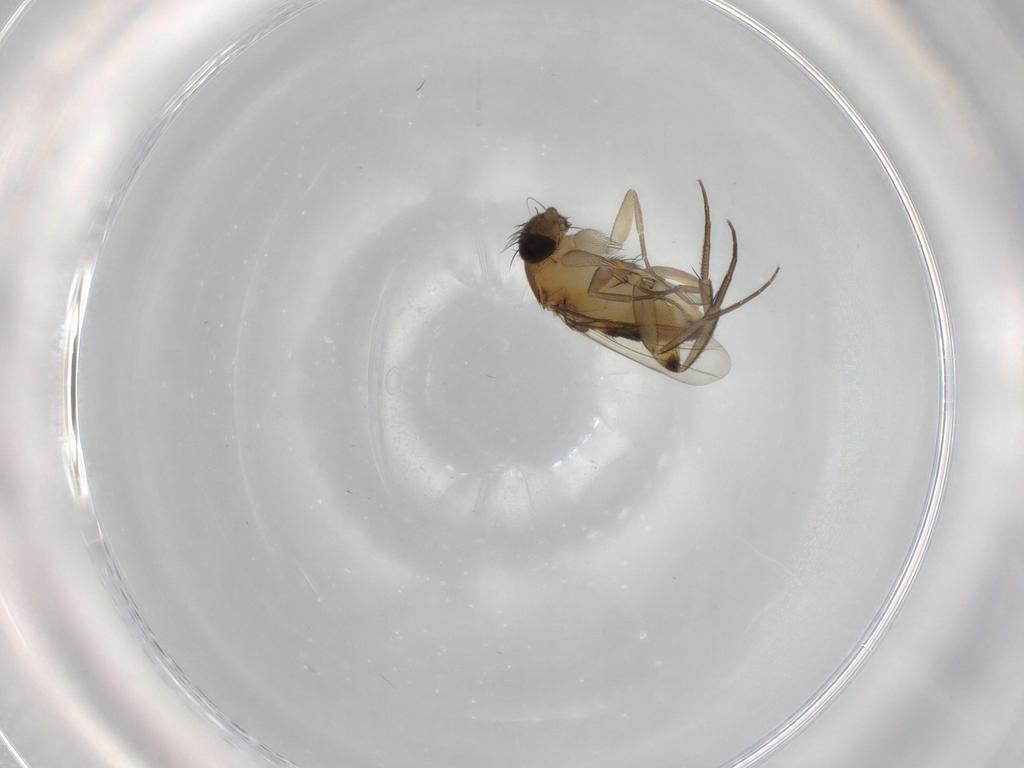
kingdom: Animalia
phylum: Arthropoda
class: Insecta
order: Diptera
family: Phoridae
